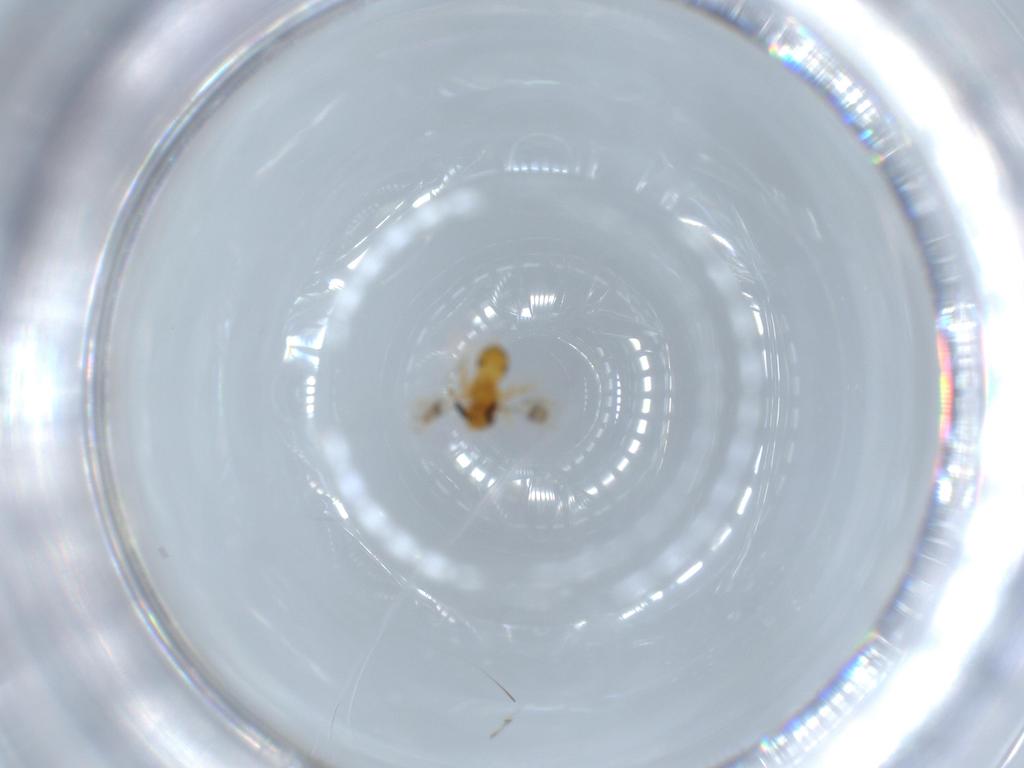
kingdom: Animalia
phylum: Arthropoda
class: Insecta
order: Hymenoptera
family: Scelionidae
